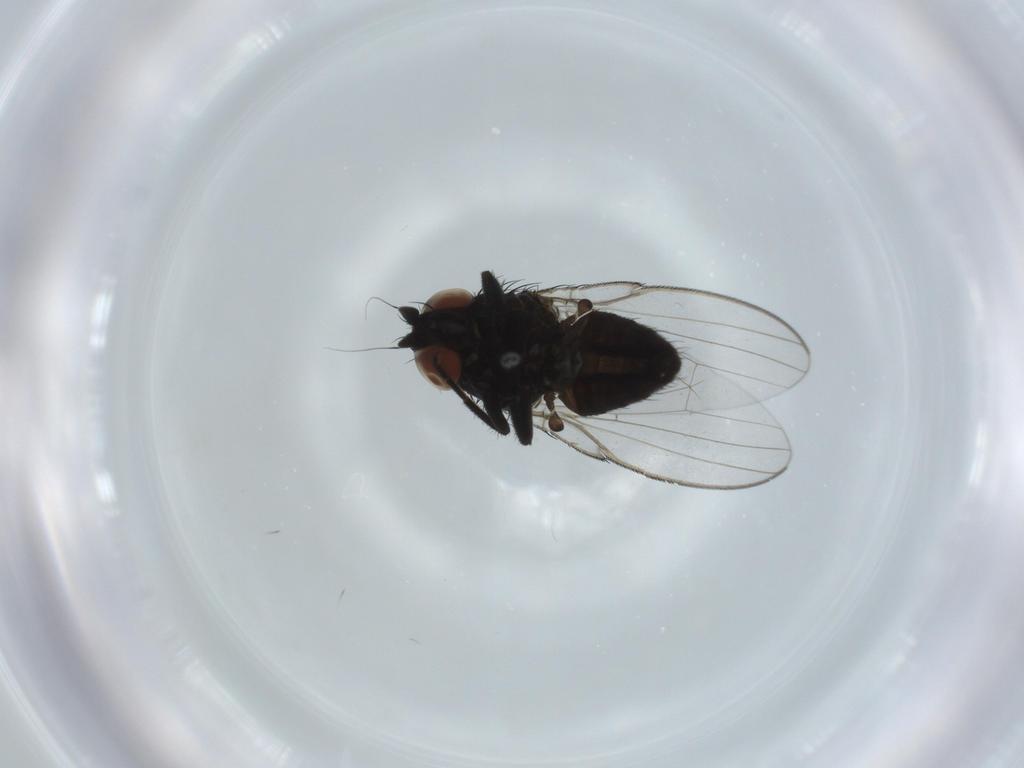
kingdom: Animalia
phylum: Arthropoda
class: Insecta
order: Diptera
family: Milichiidae
